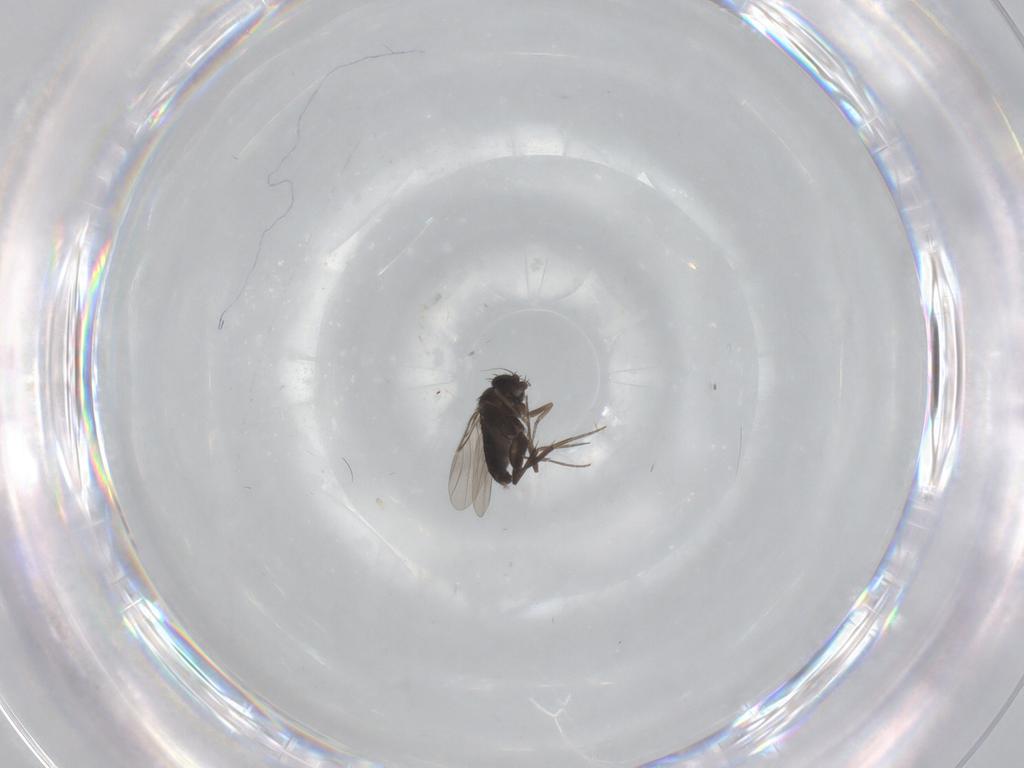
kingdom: Animalia
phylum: Arthropoda
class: Insecta
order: Diptera
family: Phoridae
